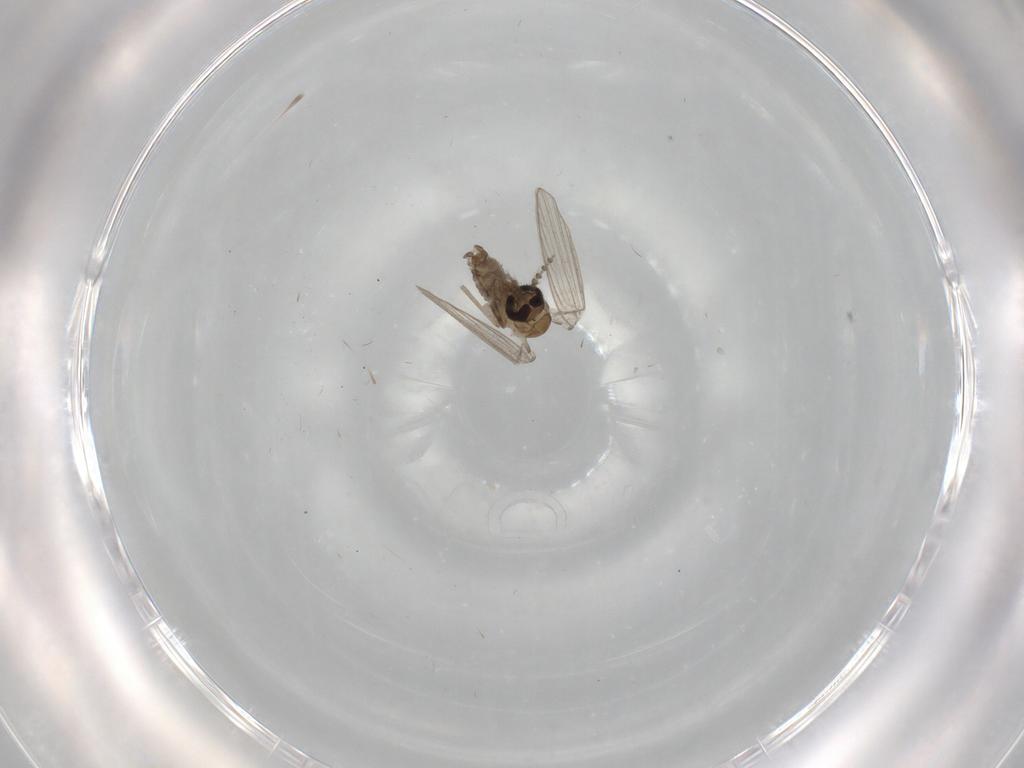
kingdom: Animalia
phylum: Arthropoda
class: Insecta
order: Diptera
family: Psychodidae
